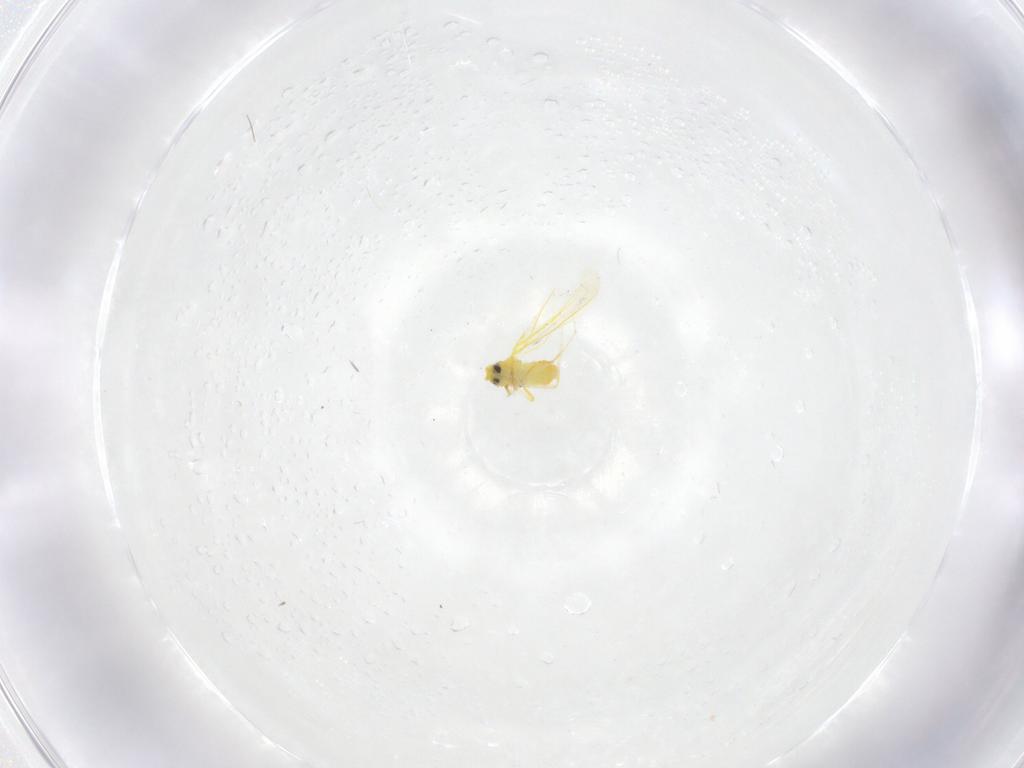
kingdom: Animalia
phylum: Arthropoda
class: Insecta
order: Hemiptera
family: Aleyrodidae
